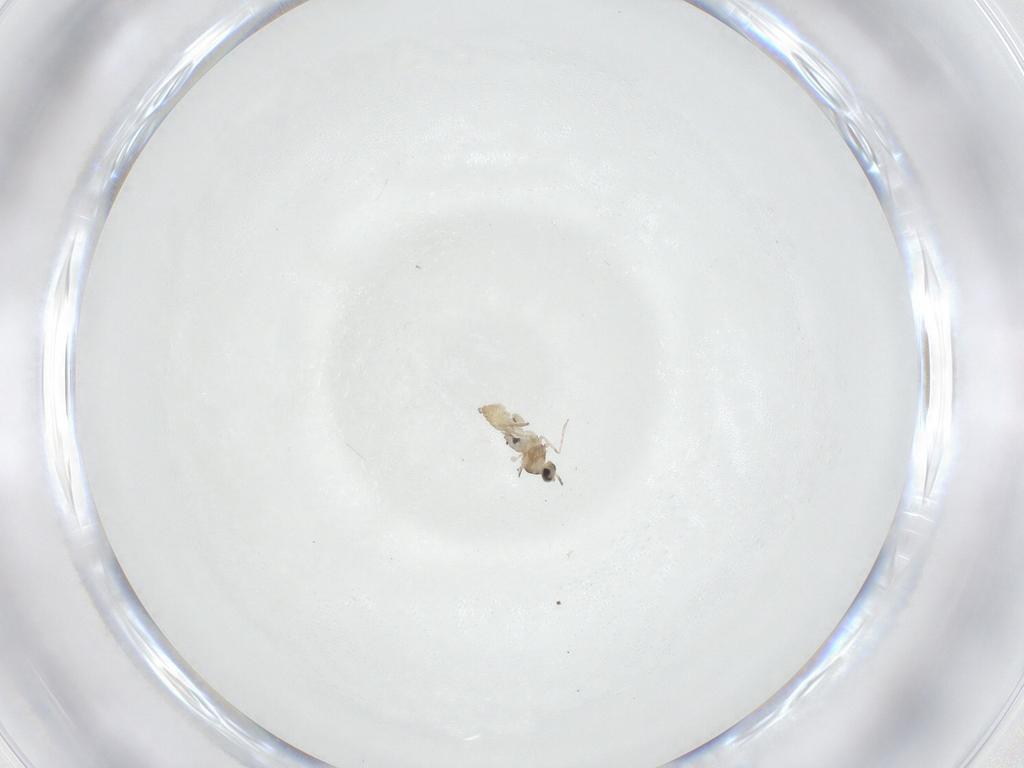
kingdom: Animalia
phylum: Arthropoda
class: Insecta
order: Diptera
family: Cecidomyiidae
